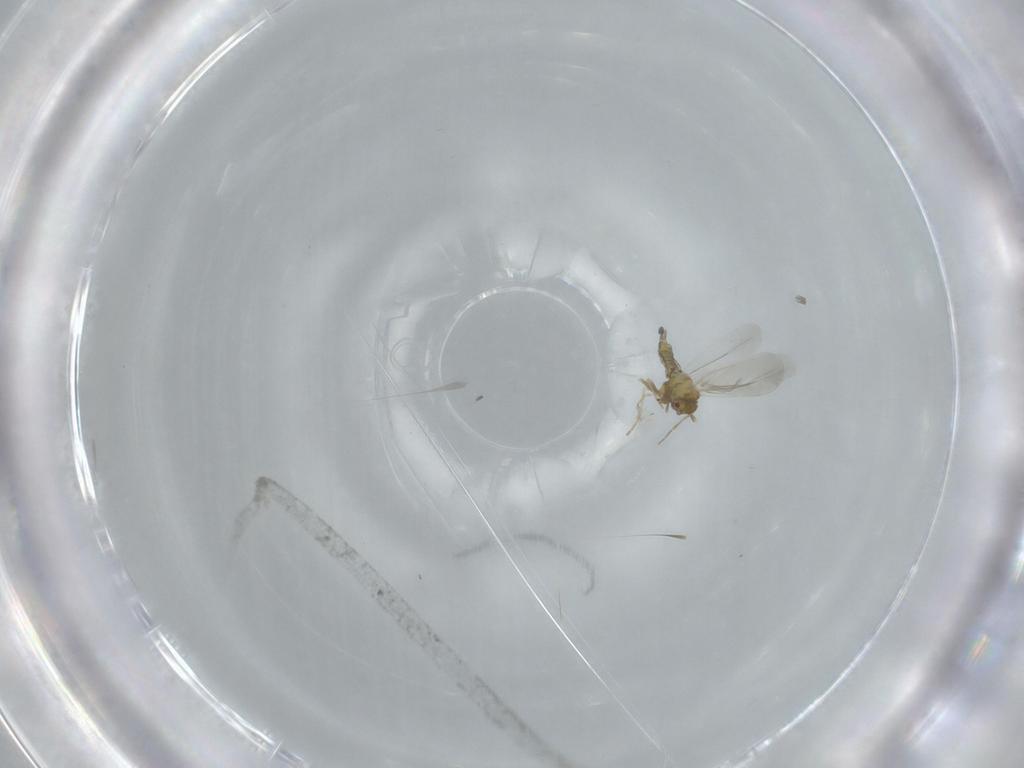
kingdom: Animalia
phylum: Arthropoda
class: Insecta
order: Hemiptera
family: Aleyrodidae
